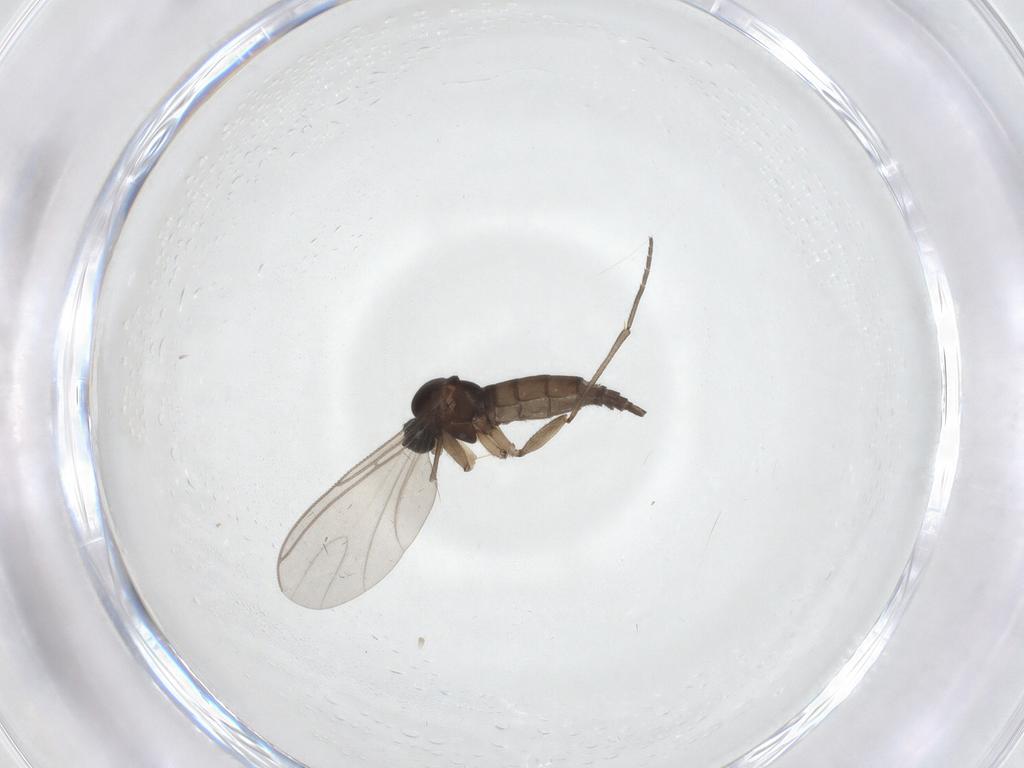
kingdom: Animalia
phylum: Arthropoda
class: Insecta
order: Diptera
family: Sciaridae
